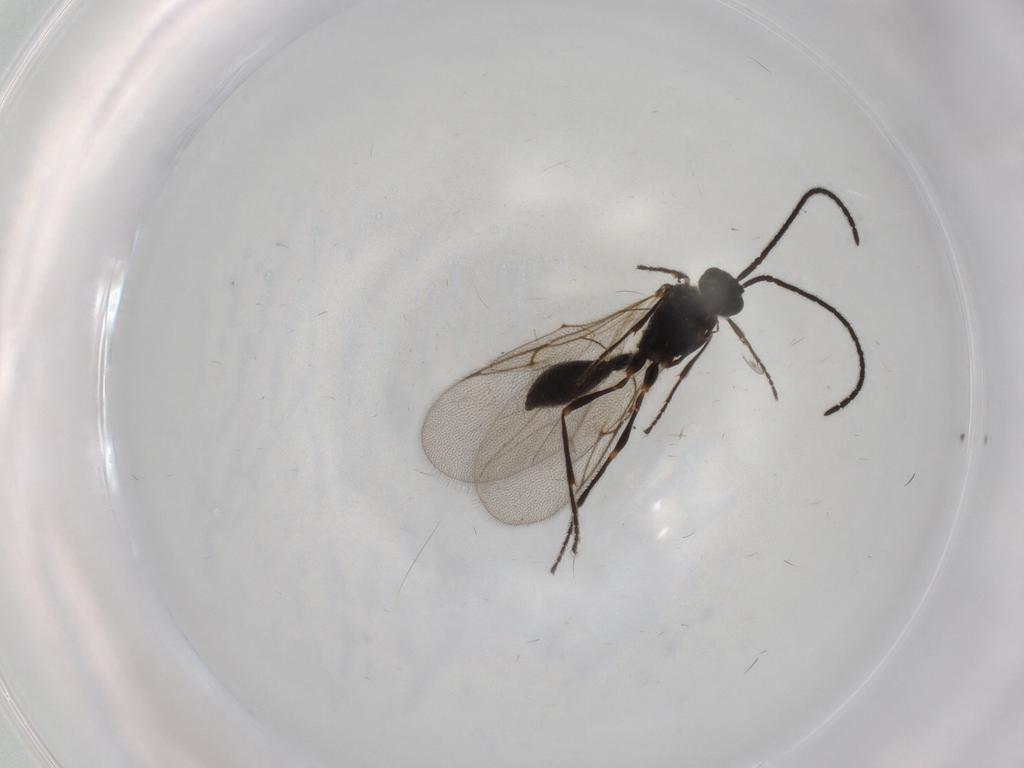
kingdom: Animalia
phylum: Arthropoda
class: Insecta
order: Hymenoptera
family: Diapriidae
